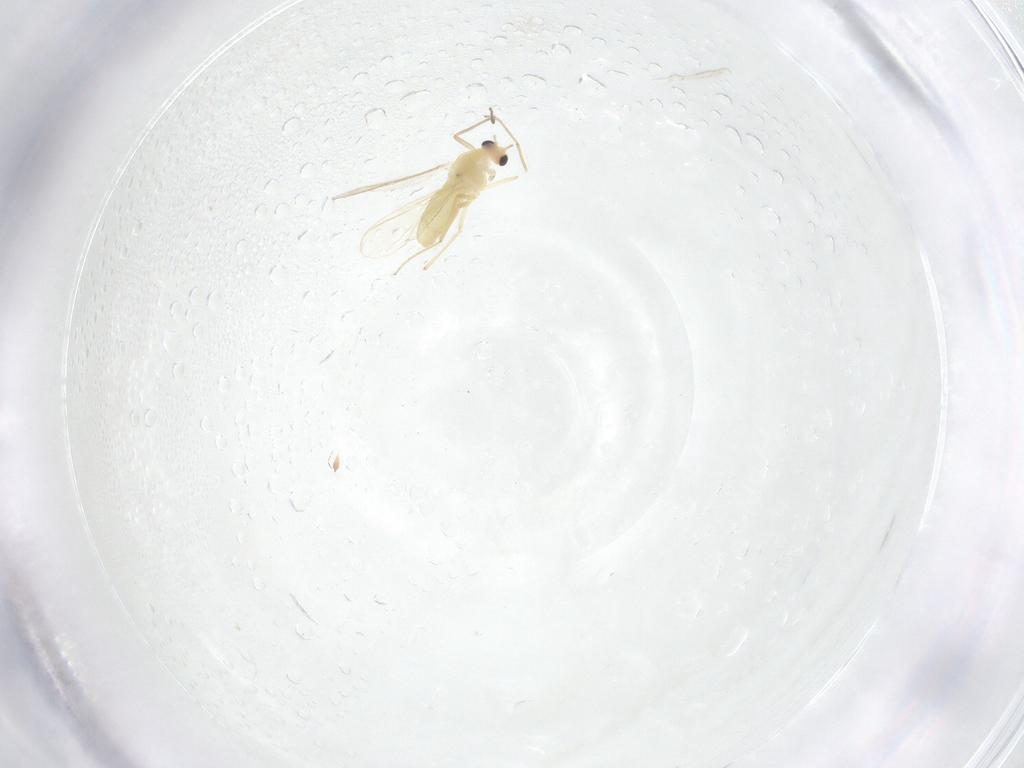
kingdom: Animalia
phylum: Arthropoda
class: Insecta
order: Diptera
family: Chironomidae
